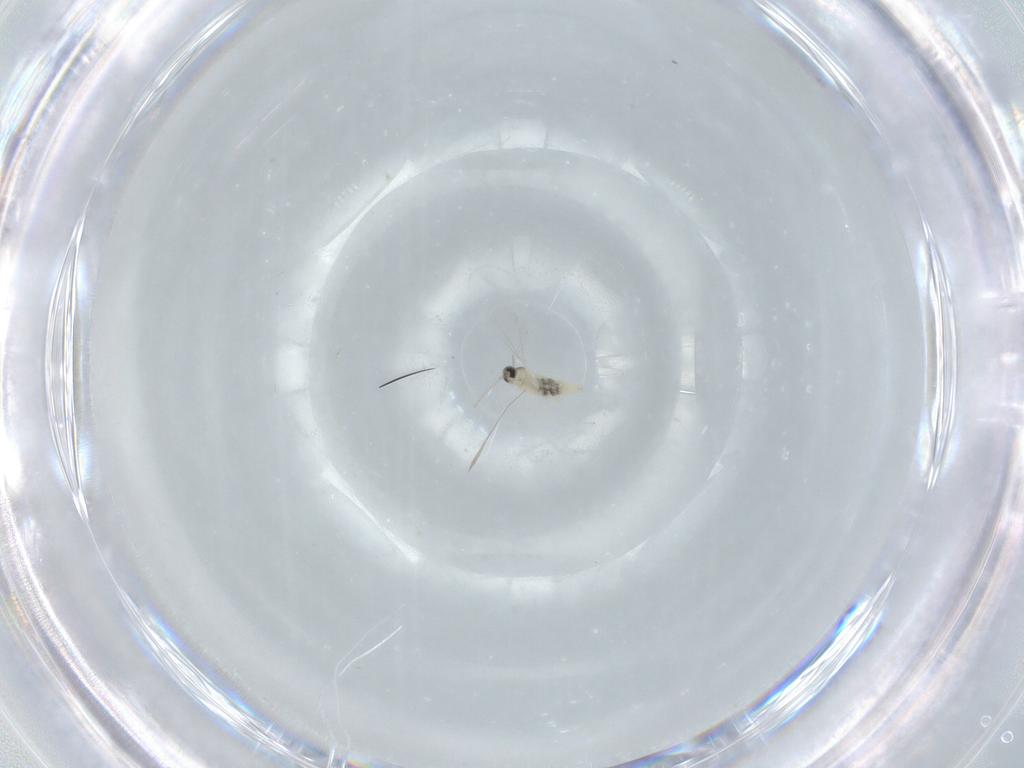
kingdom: Animalia
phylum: Arthropoda
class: Insecta
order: Diptera
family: Cecidomyiidae
